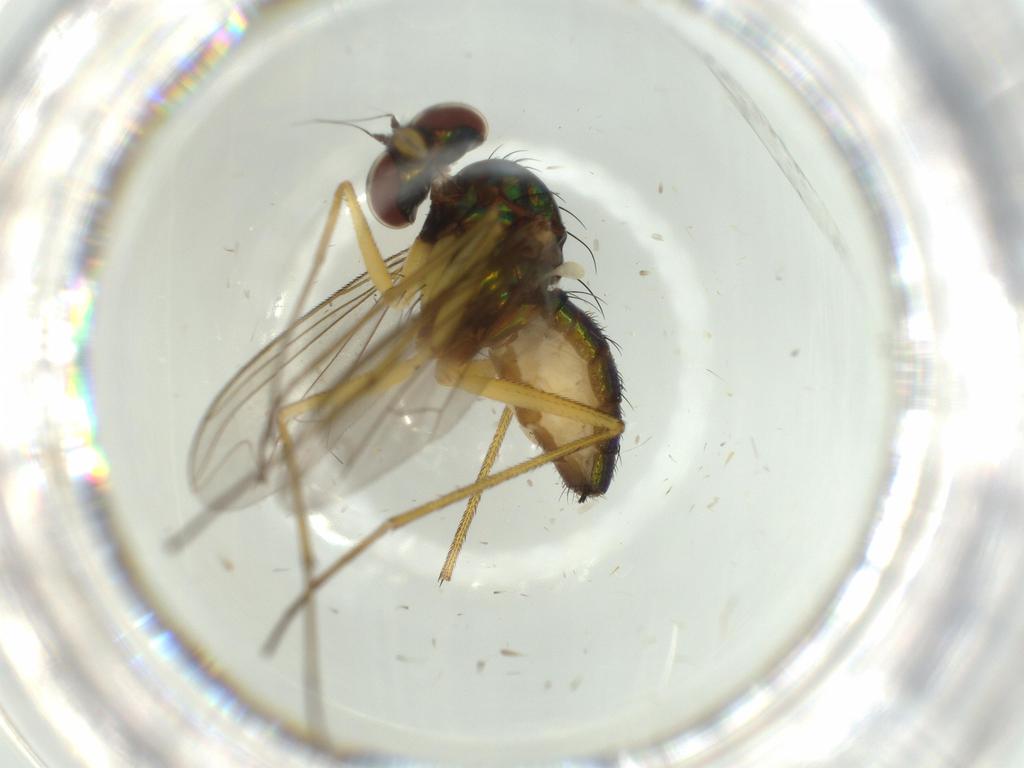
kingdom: Animalia
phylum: Arthropoda
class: Insecta
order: Diptera
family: Dolichopodidae
